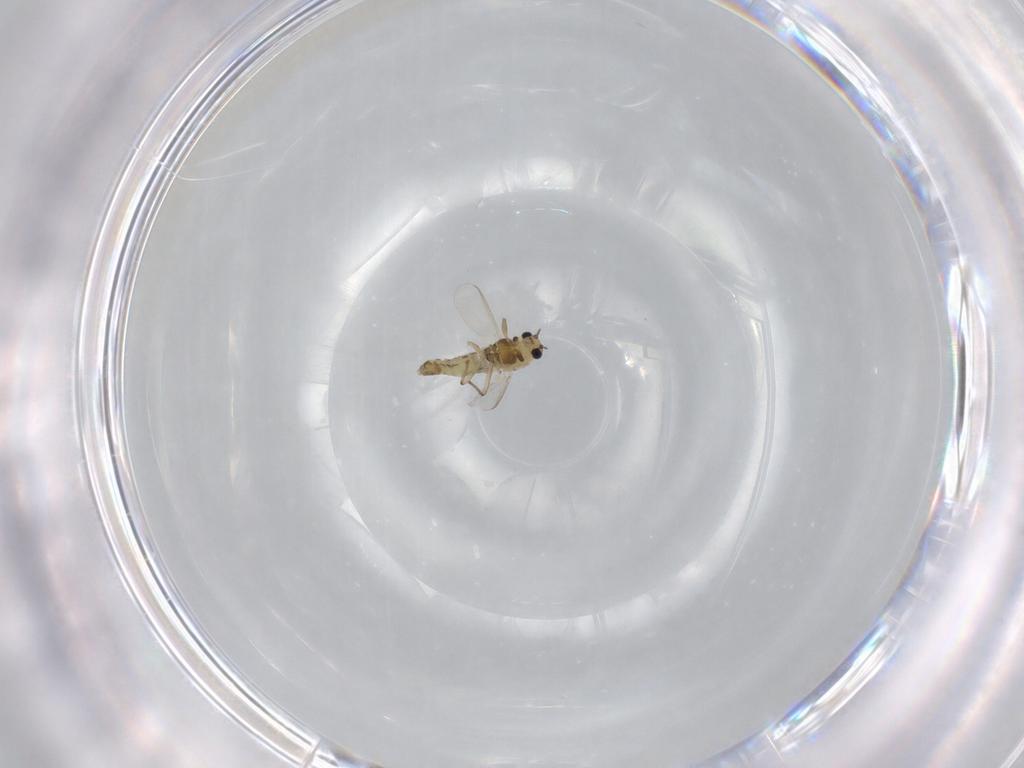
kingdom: Animalia
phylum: Arthropoda
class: Insecta
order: Diptera
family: Chironomidae
